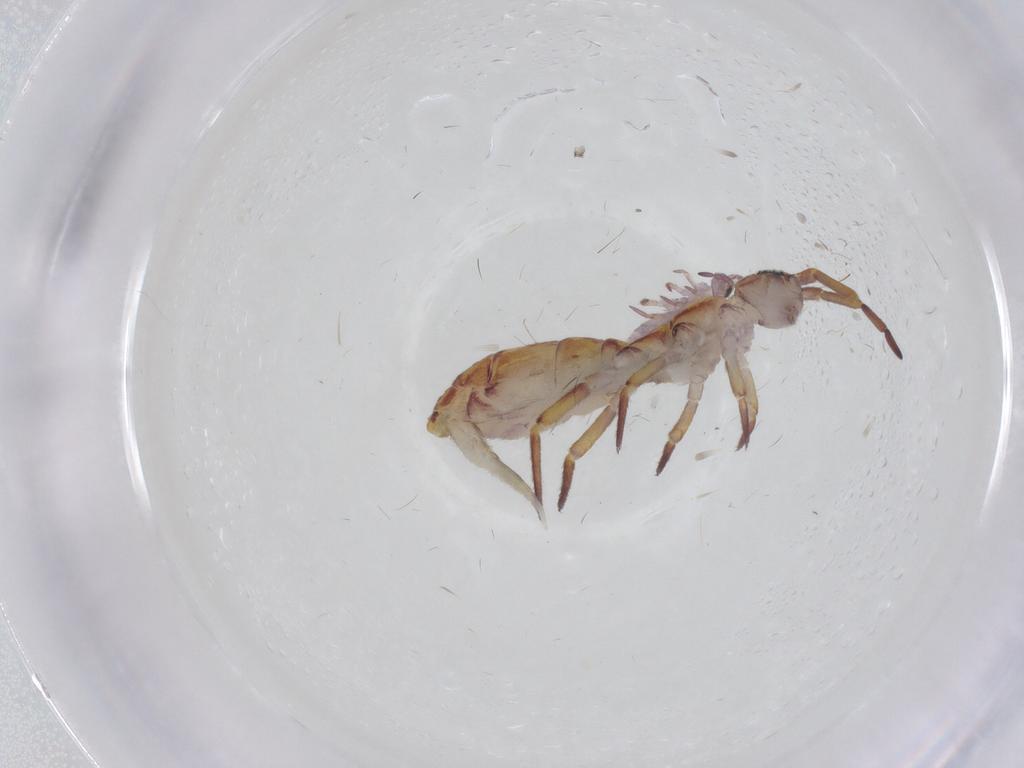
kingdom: Animalia
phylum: Arthropoda
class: Collembola
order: Entomobryomorpha
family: Isotomidae
